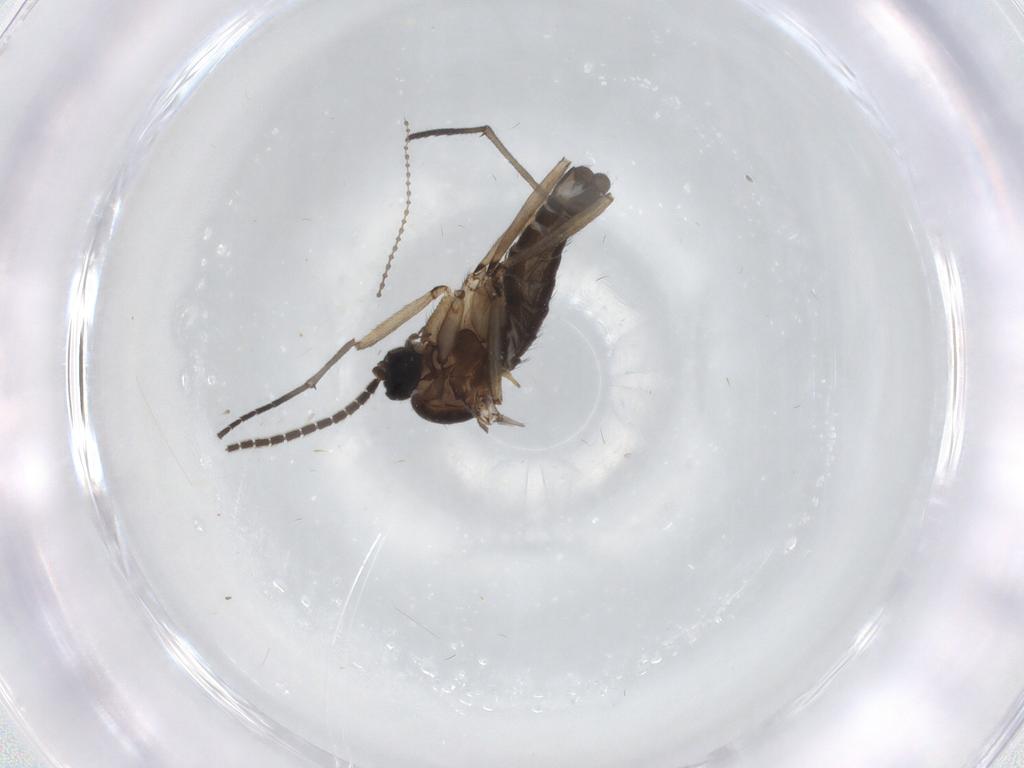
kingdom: Animalia
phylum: Arthropoda
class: Insecta
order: Diptera
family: Sciaridae
